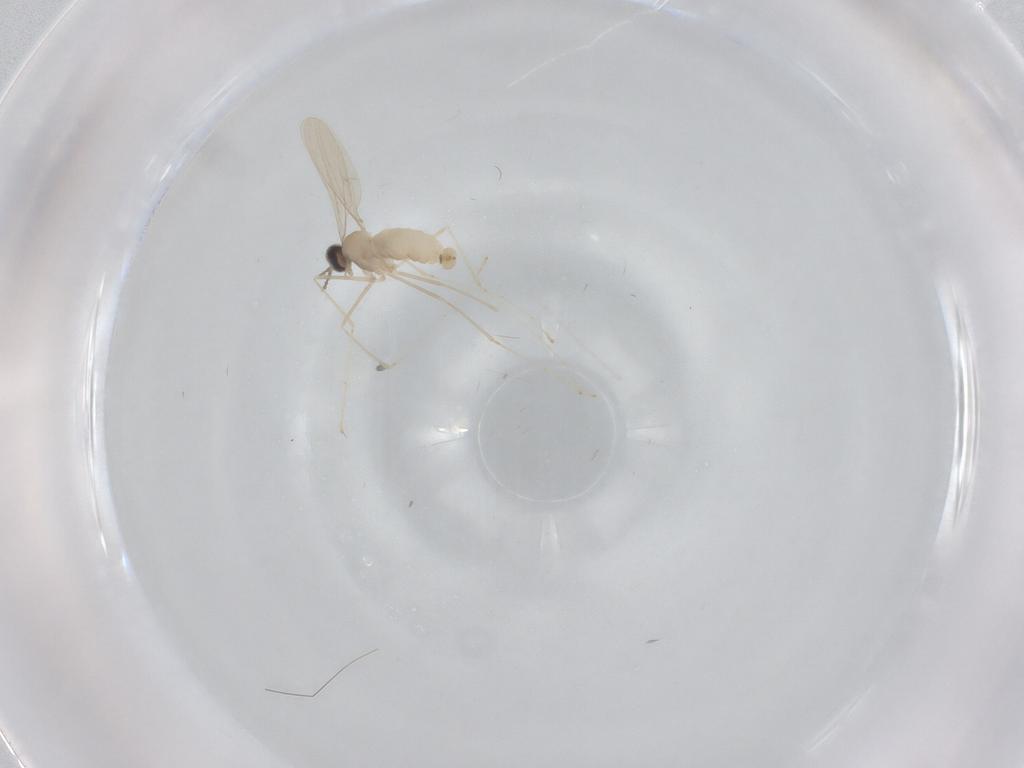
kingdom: Animalia
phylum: Arthropoda
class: Insecta
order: Diptera
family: Cecidomyiidae
